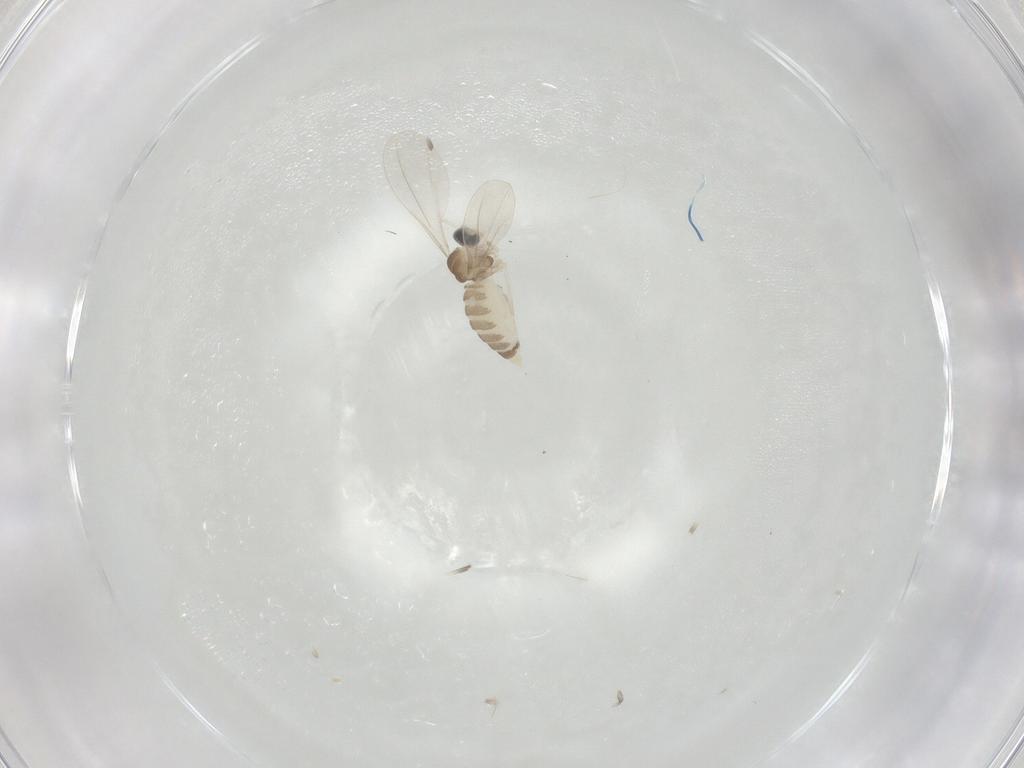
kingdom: Animalia
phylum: Arthropoda
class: Insecta
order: Diptera
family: Cecidomyiidae
